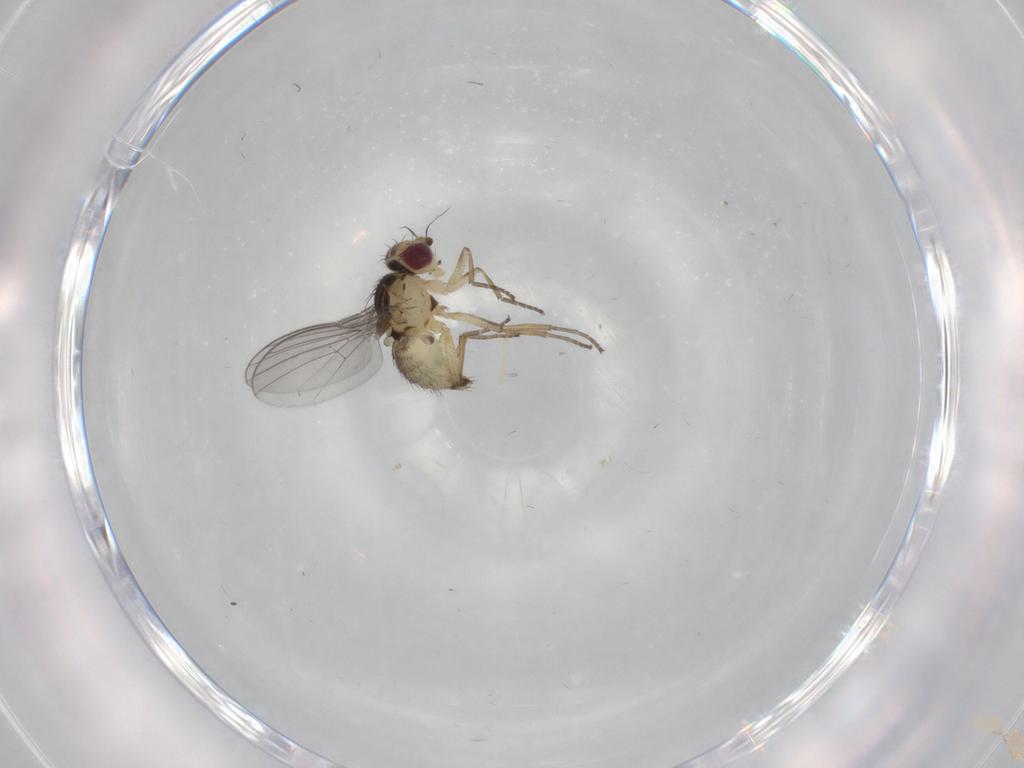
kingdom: Animalia
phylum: Arthropoda
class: Insecta
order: Diptera
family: Agromyzidae
